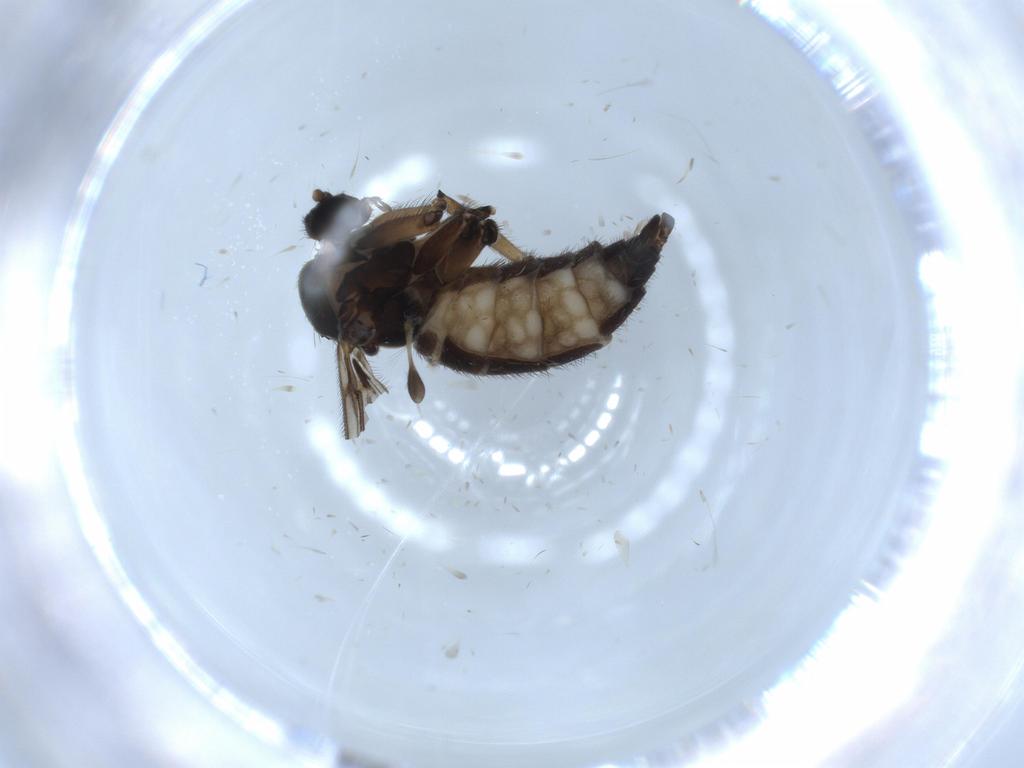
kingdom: Animalia
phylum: Arthropoda
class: Insecta
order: Diptera
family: Sciaridae
